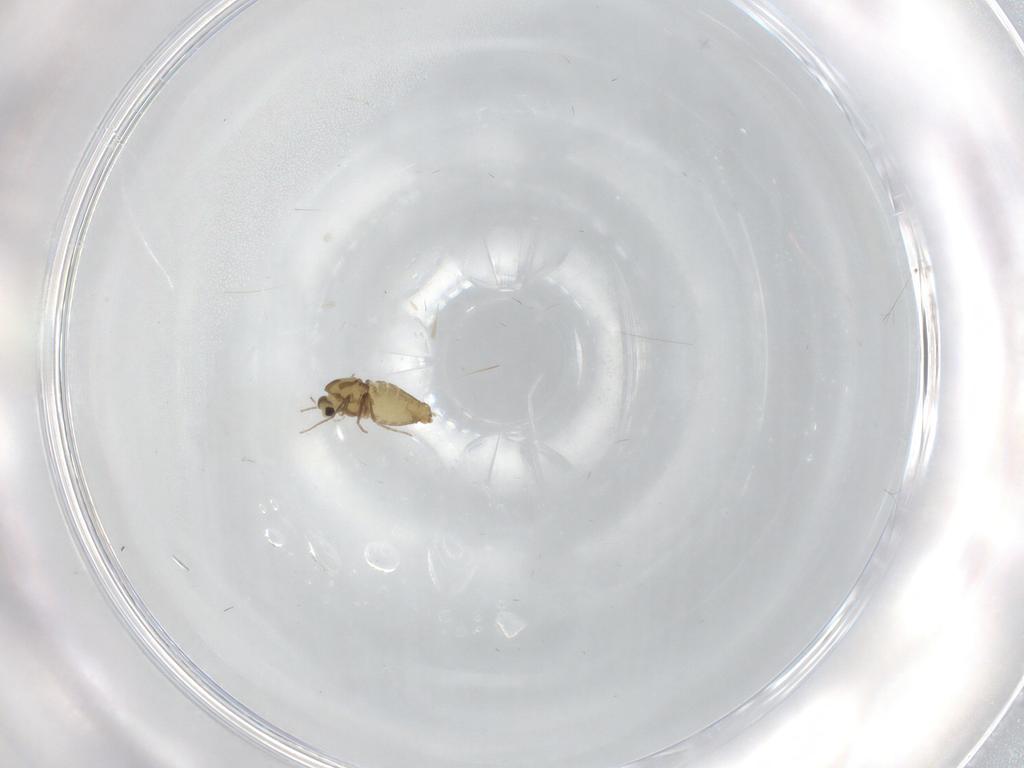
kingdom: Animalia
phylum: Arthropoda
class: Insecta
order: Diptera
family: Chironomidae
